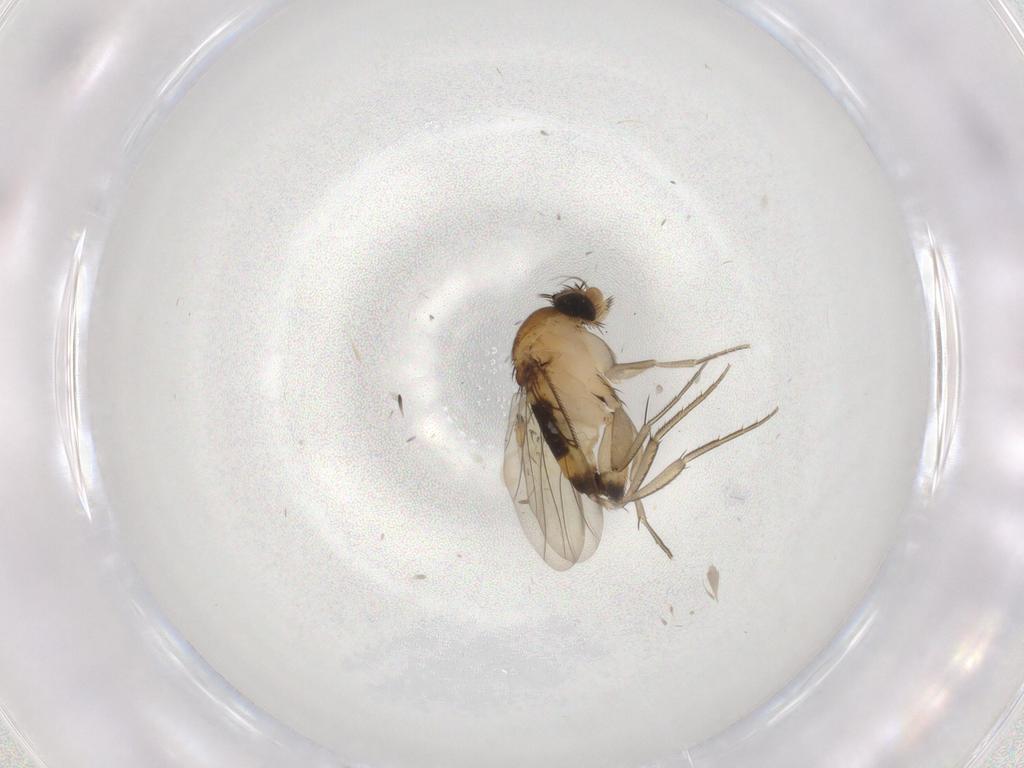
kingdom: Animalia
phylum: Arthropoda
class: Insecta
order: Diptera
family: Phoridae
